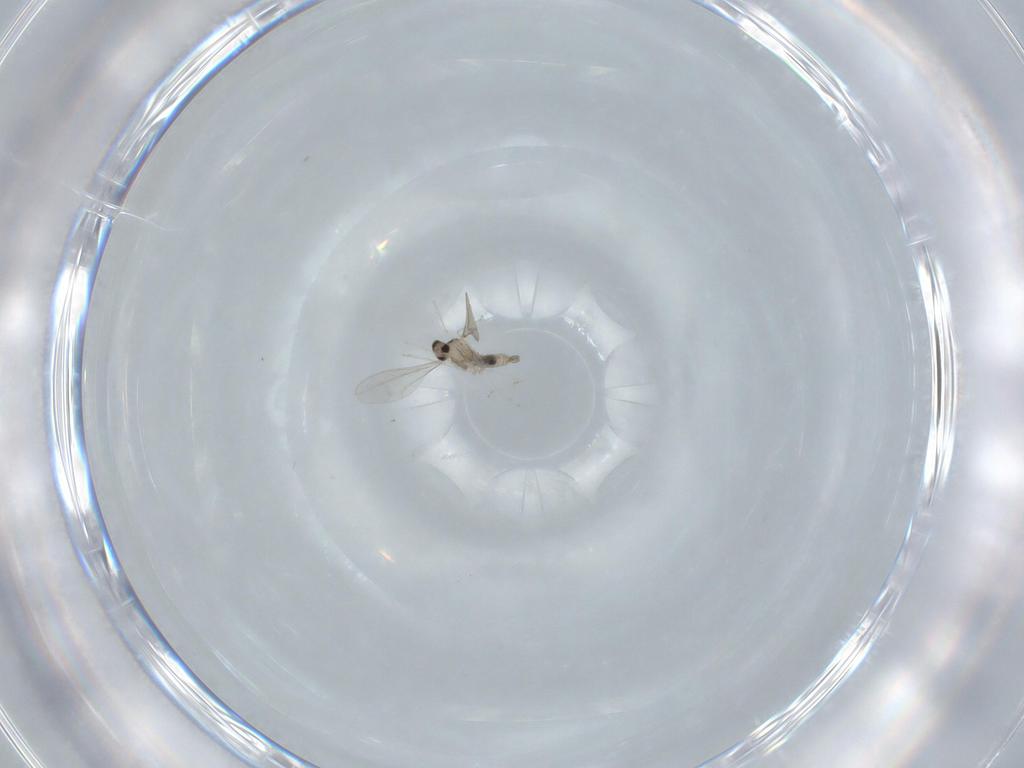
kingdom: Animalia
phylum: Arthropoda
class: Insecta
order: Diptera
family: Cecidomyiidae
